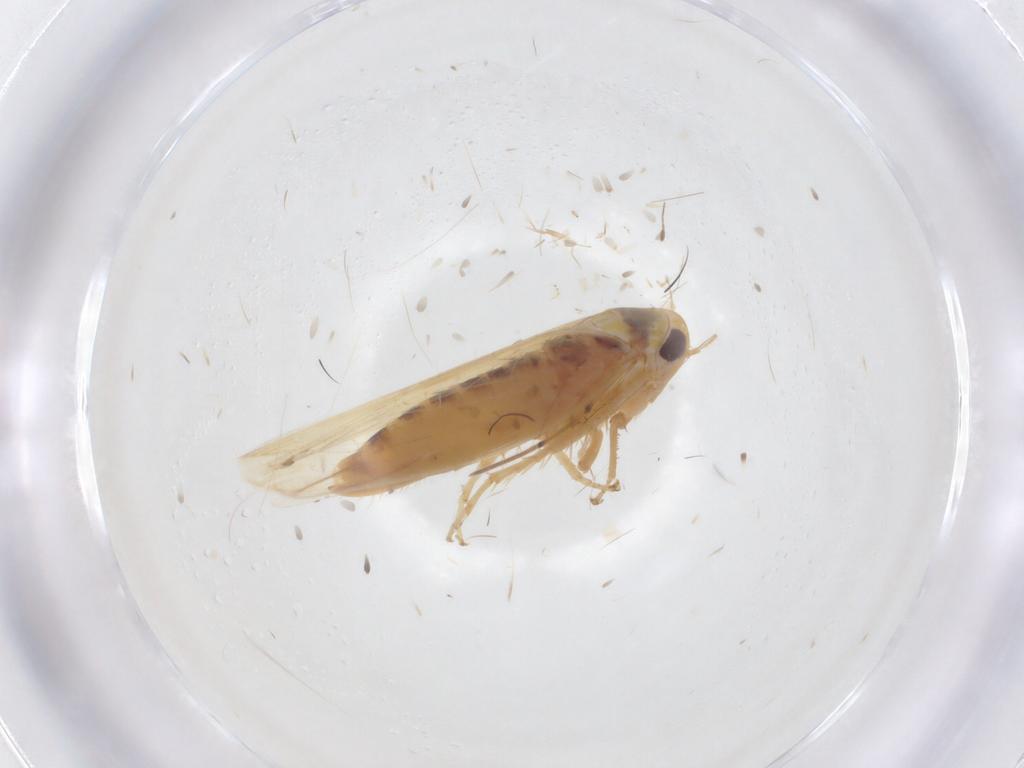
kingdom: Animalia
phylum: Arthropoda
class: Insecta
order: Hemiptera
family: Cicadellidae
